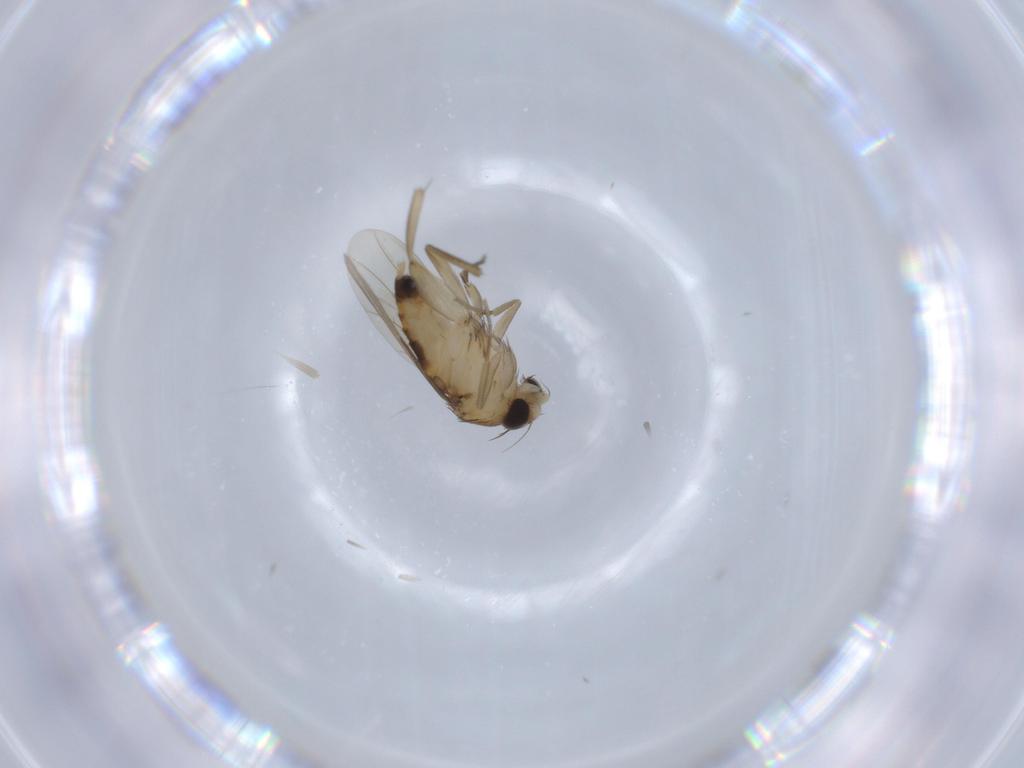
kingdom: Animalia
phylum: Arthropoda
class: Insecta
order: Diptera
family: Phoridae
